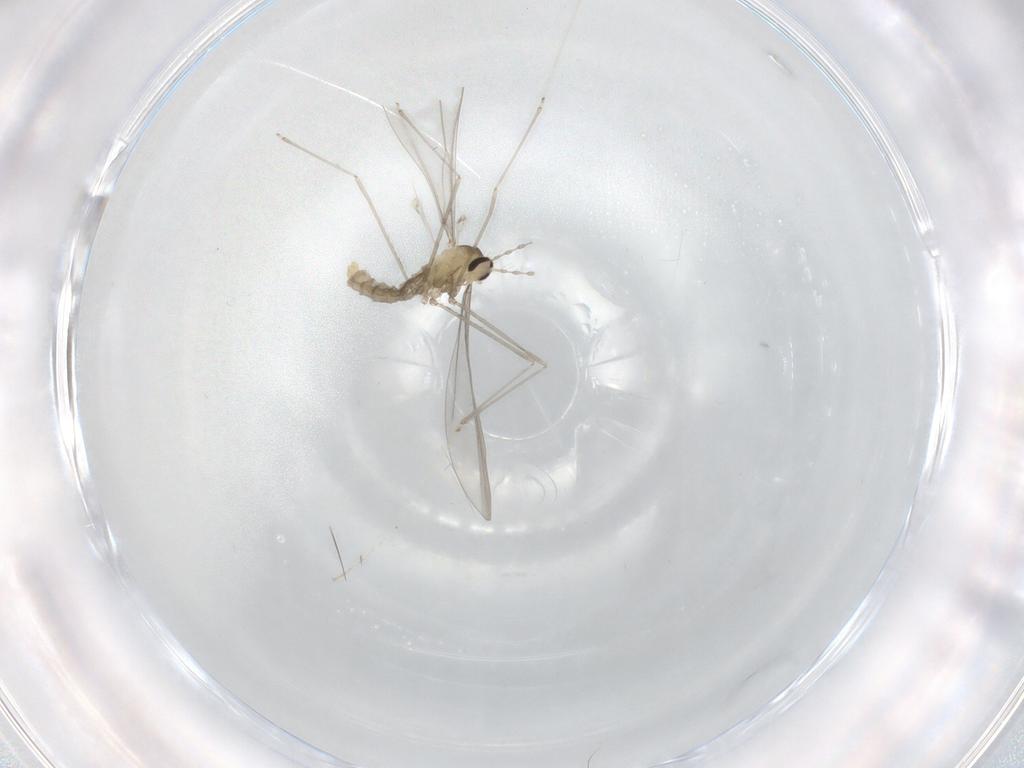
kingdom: Animalia
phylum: Arthropoda
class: Insecta
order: Diptera
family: Cecidomyiidae
